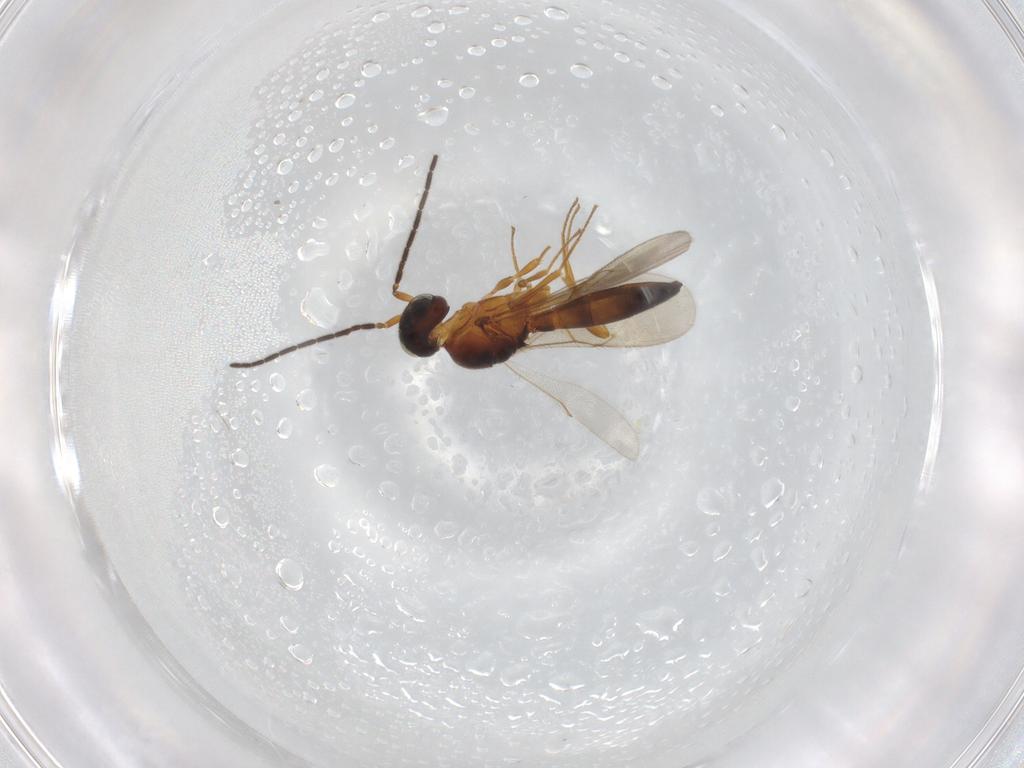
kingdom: Animalia
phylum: Arthropoda
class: Insecta
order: Hymenoptera
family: Scelionidae
